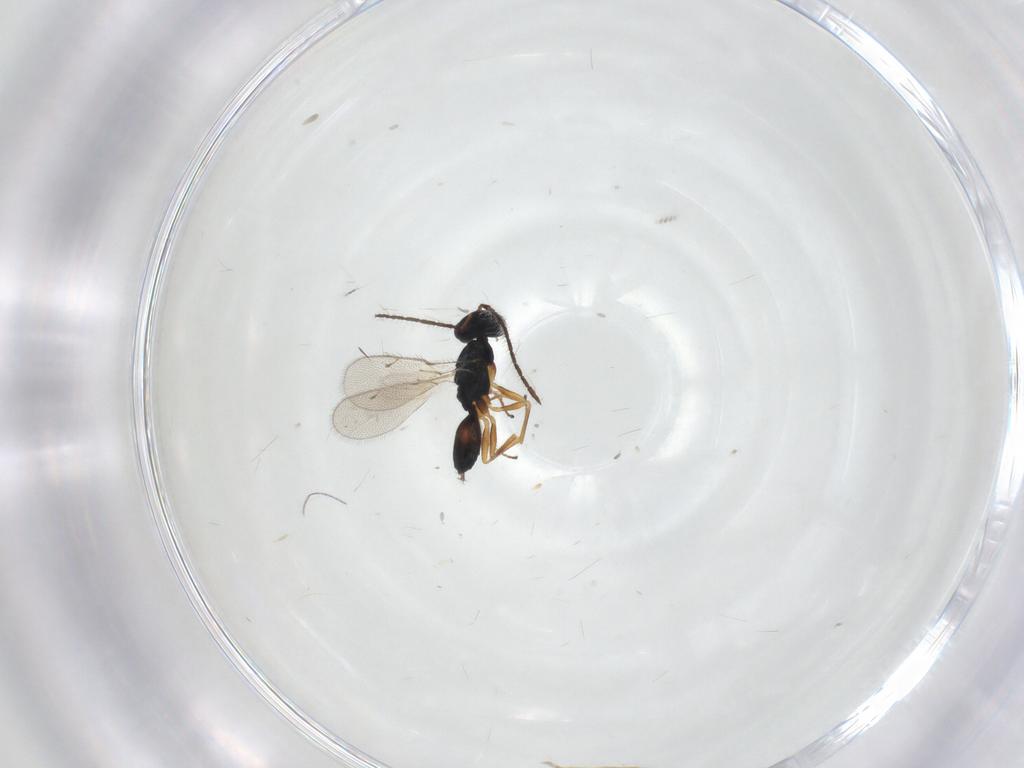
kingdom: Animalia
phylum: Arthropoda
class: Insecta
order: Hymenoptera
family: Pteromalidae
